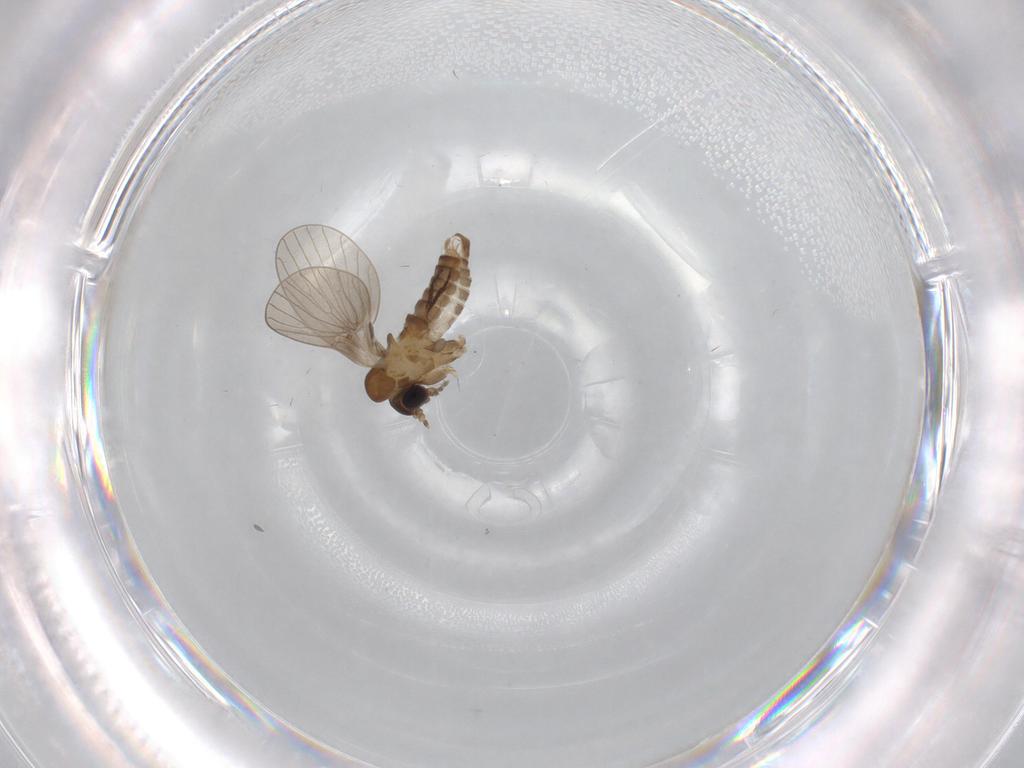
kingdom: Animalia
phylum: Arthropoda
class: Insecta
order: Diptera
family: Cecidomyiidae
